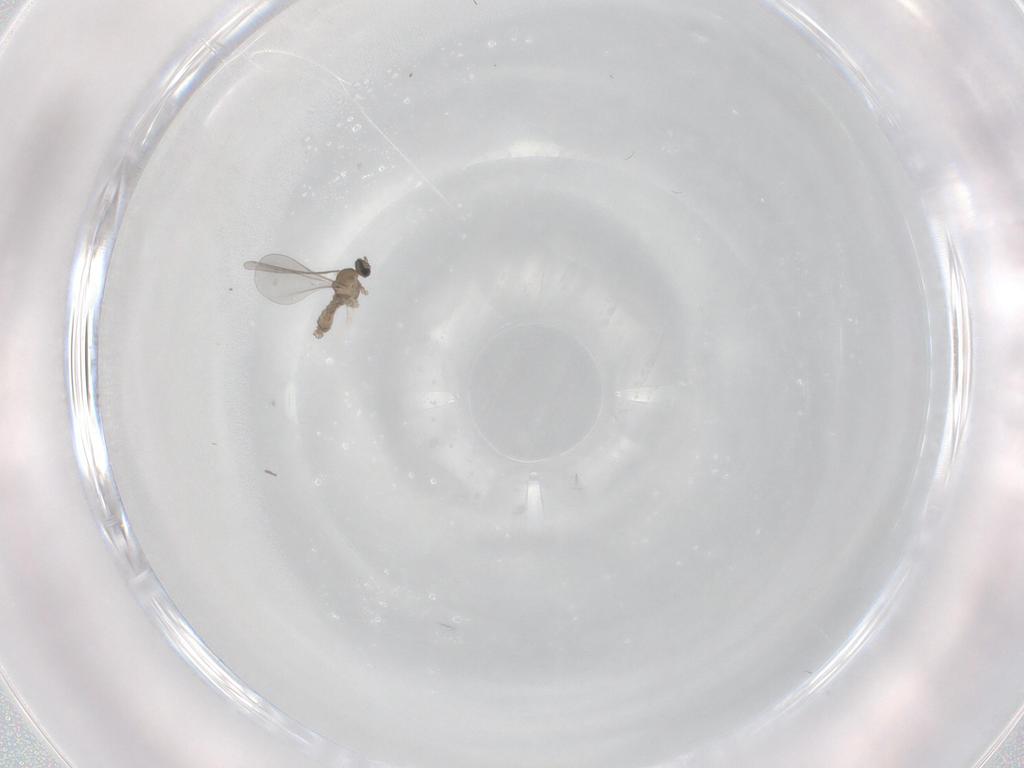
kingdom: Animalia
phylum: Arthropoda
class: Insecta
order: Diptera
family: Cecidomyiidae
